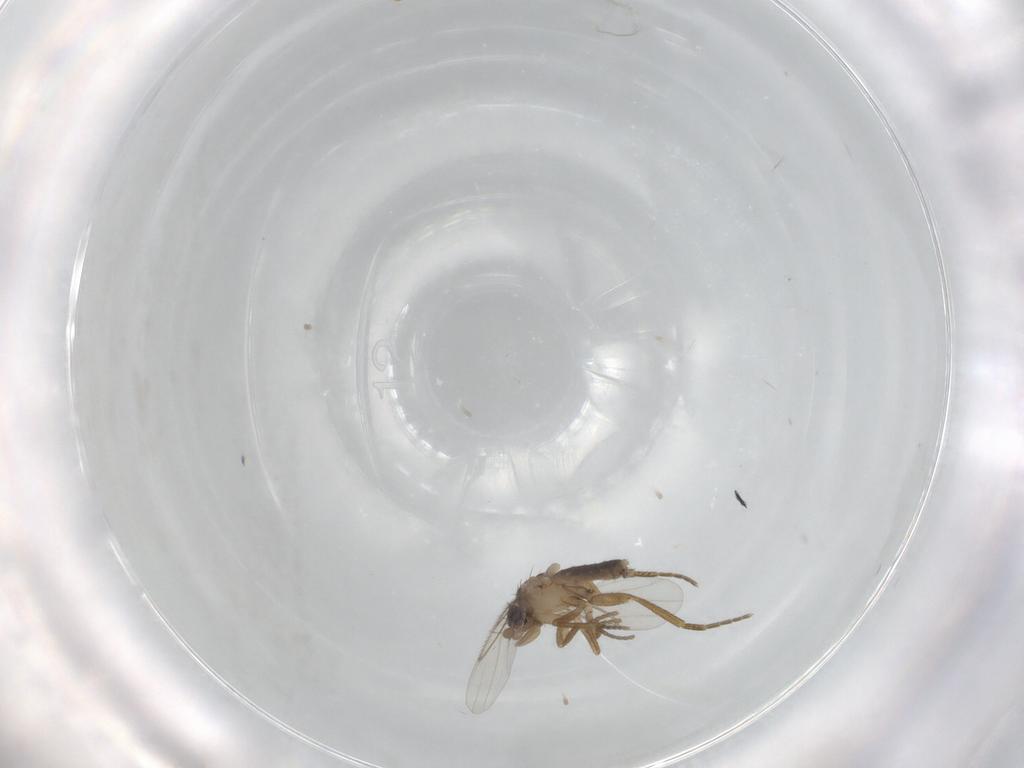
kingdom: Animalia
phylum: Arthropoda
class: Insecta
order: Diptera
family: Phoridae
